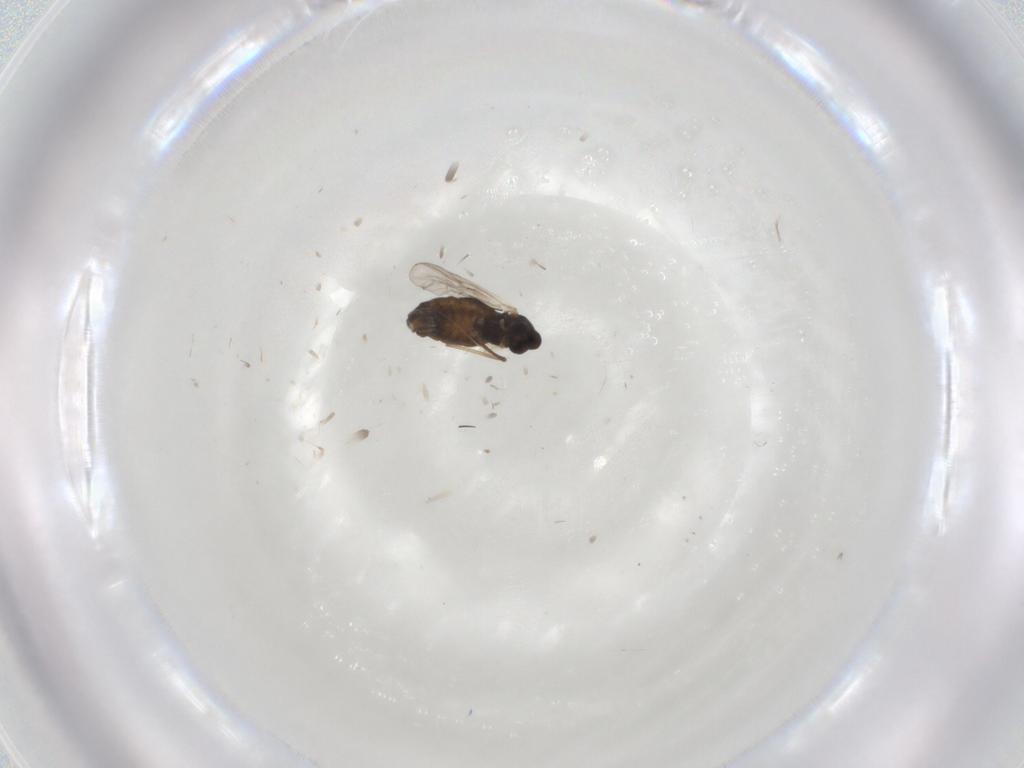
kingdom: Animalia
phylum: Arthropoda
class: Insecta
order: Diptera
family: Chironomidae
